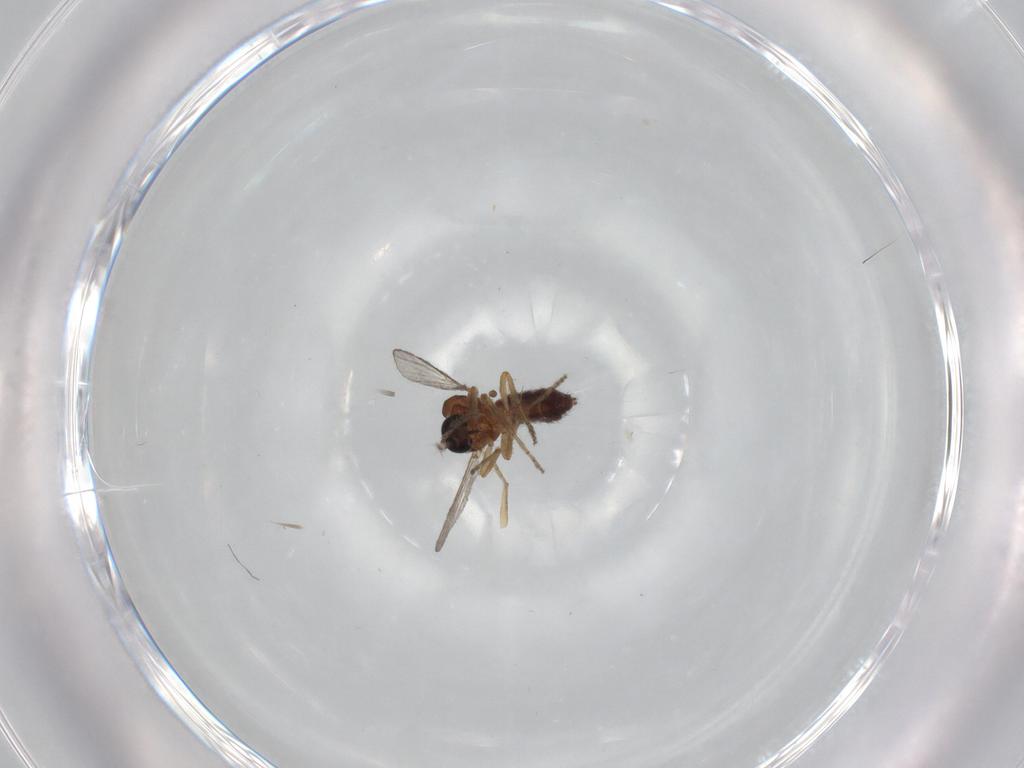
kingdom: Animalia
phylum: Arthropoda
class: Insecta
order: Diptera
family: Ceratopogonidae
